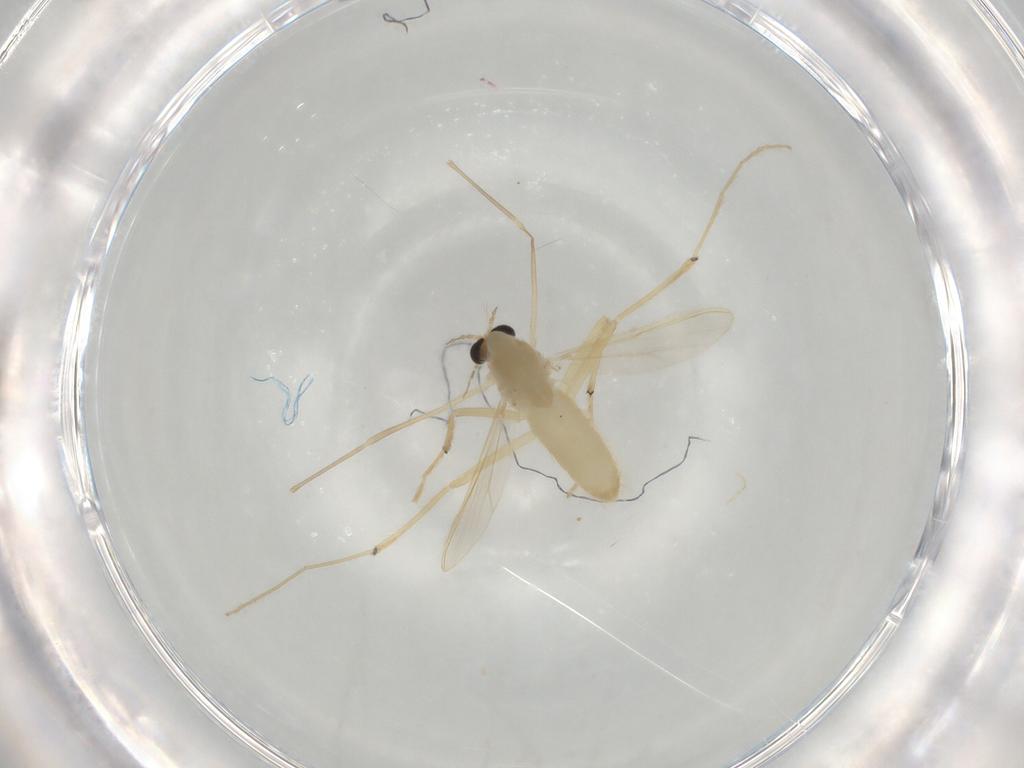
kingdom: Animalia
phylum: Arthropoda
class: Insecta
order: Diptera
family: Chironomidae
